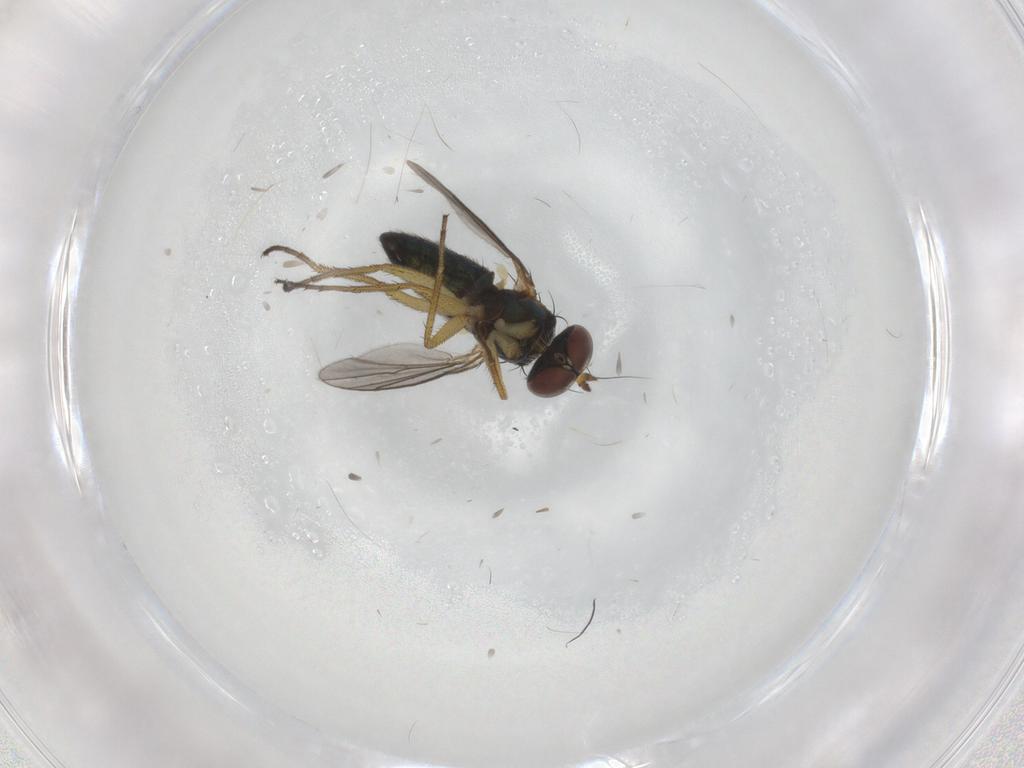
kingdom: Animalia
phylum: Arthropoda
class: Insecta
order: Diptera
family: Dolichopodidae
